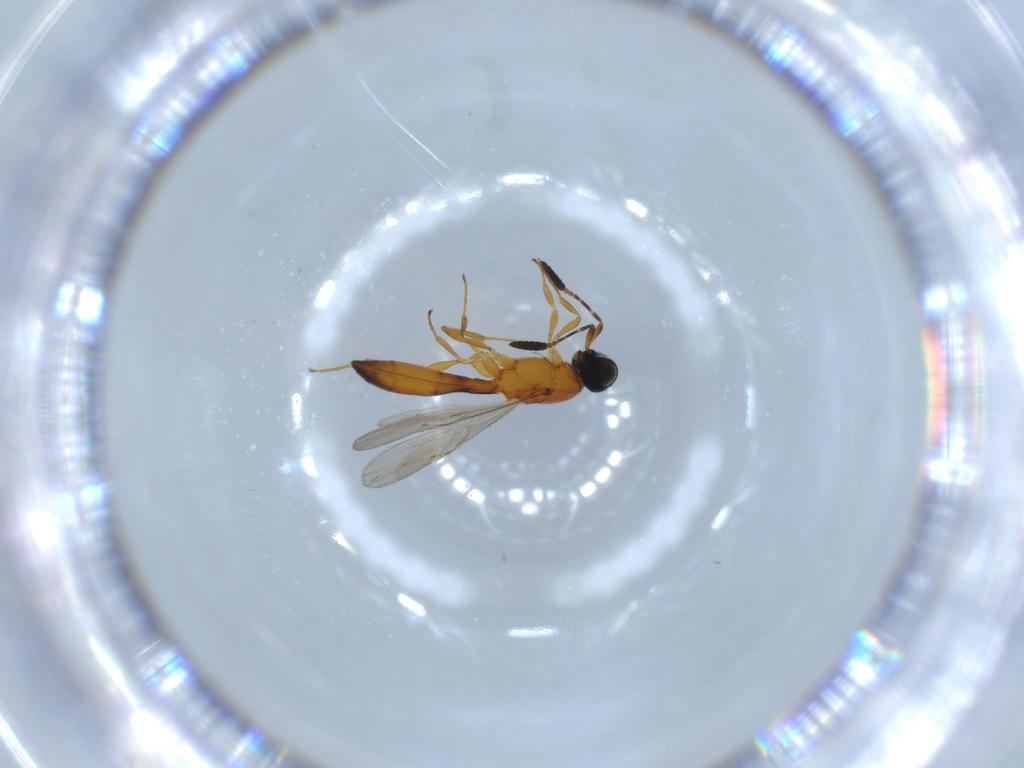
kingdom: Animalia
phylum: Arthropoda
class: Insecta
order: Hymenoptera
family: Scelionidae
